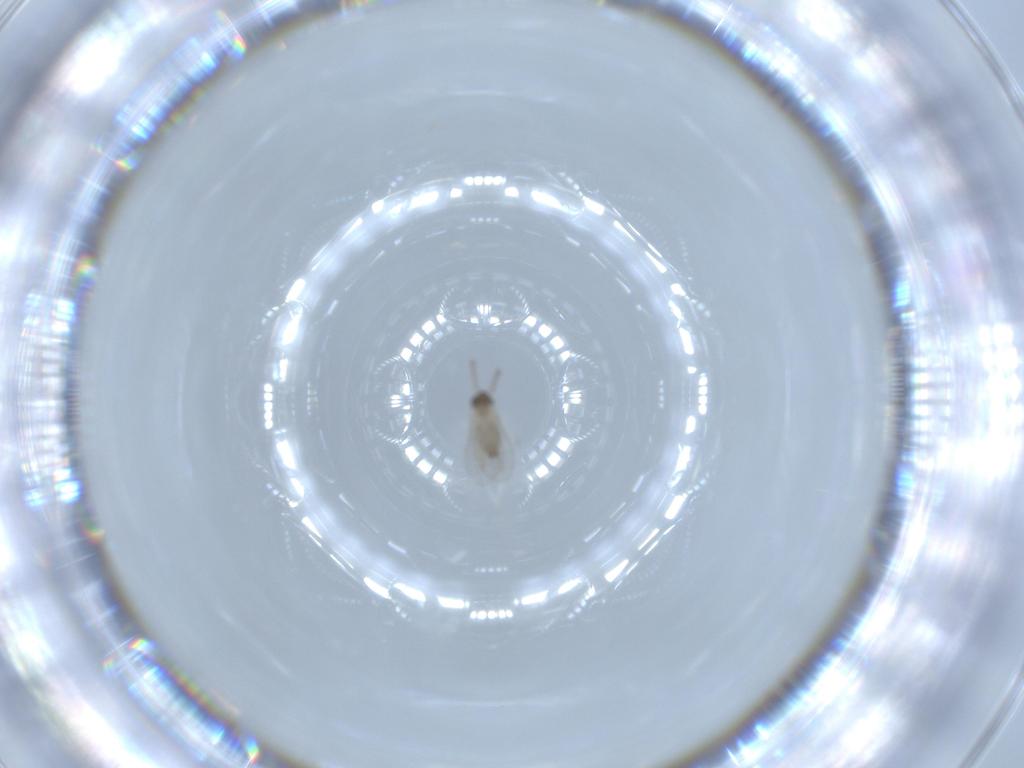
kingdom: Animalia
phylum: Arthropoda
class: Insecta
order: Diptera
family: Cecidomyiidae
